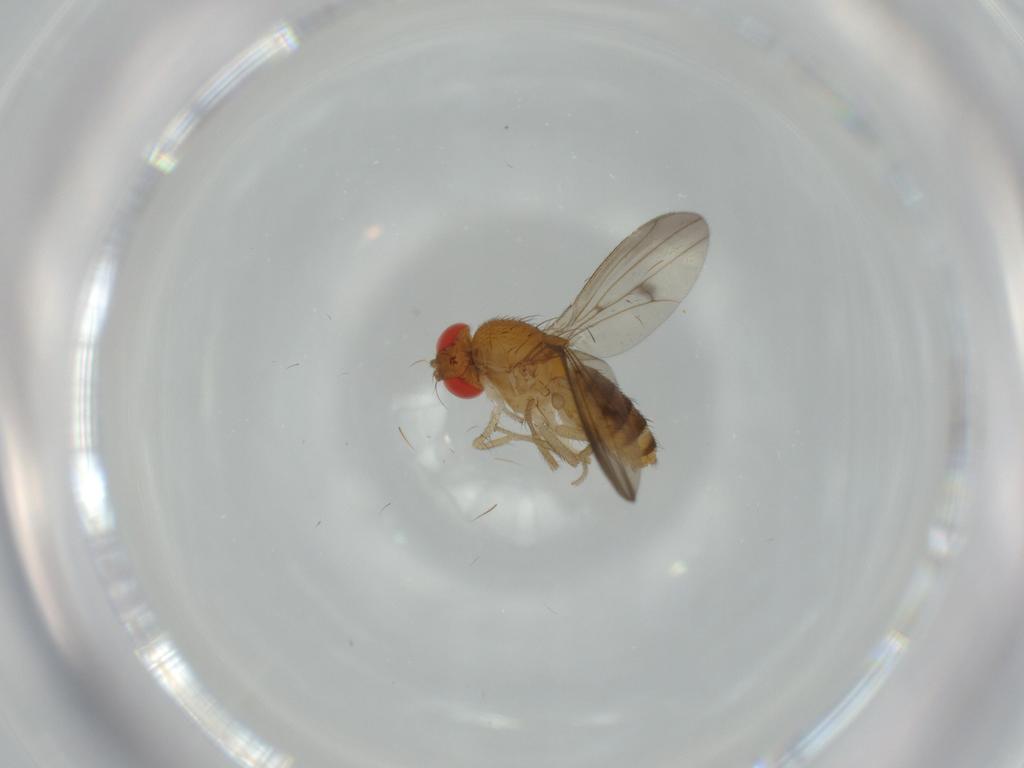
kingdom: Animalia
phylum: Arthropoda
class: Insecta
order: Diptera
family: Drosophilidae
